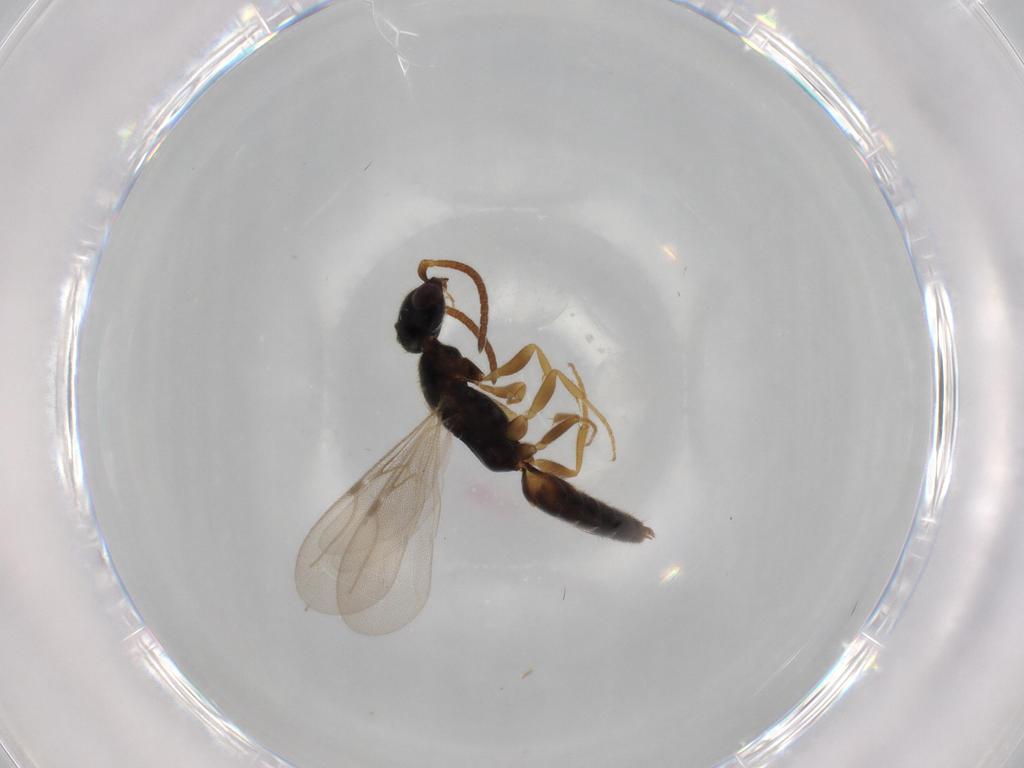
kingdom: Animalia
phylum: Arthropoda
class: Insecta
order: Hymenoptera
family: Bethylidae
